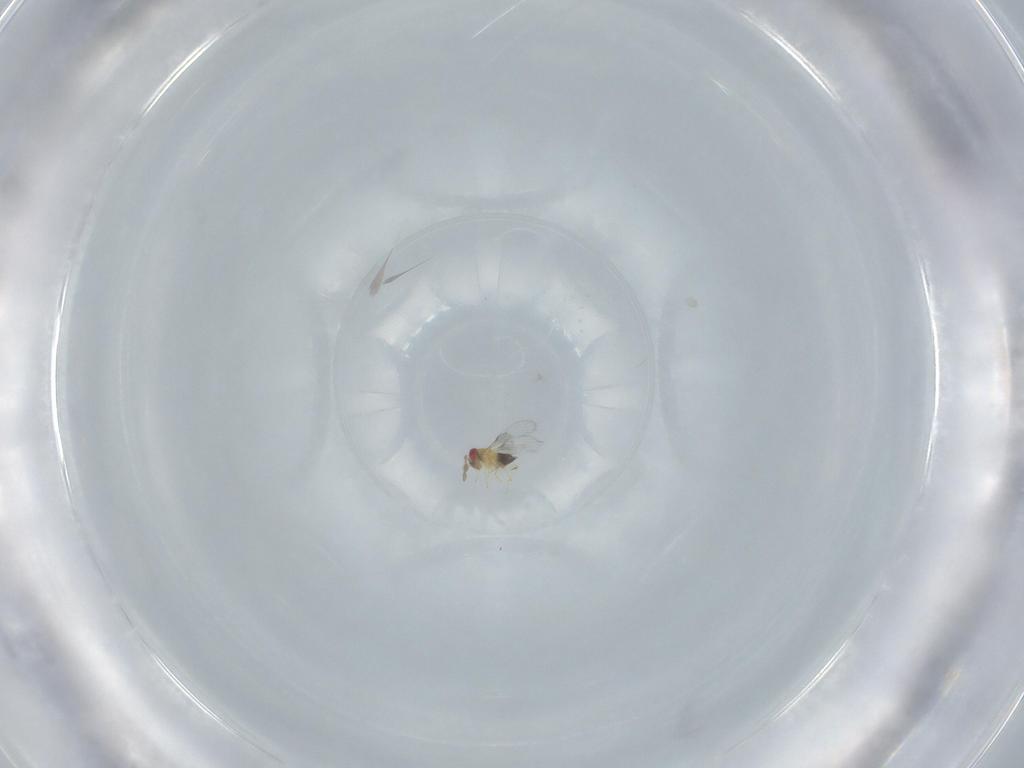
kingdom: Animalia
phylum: Arthropoda
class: Insecta
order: Hymenoptera
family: Trichogrammatidae
